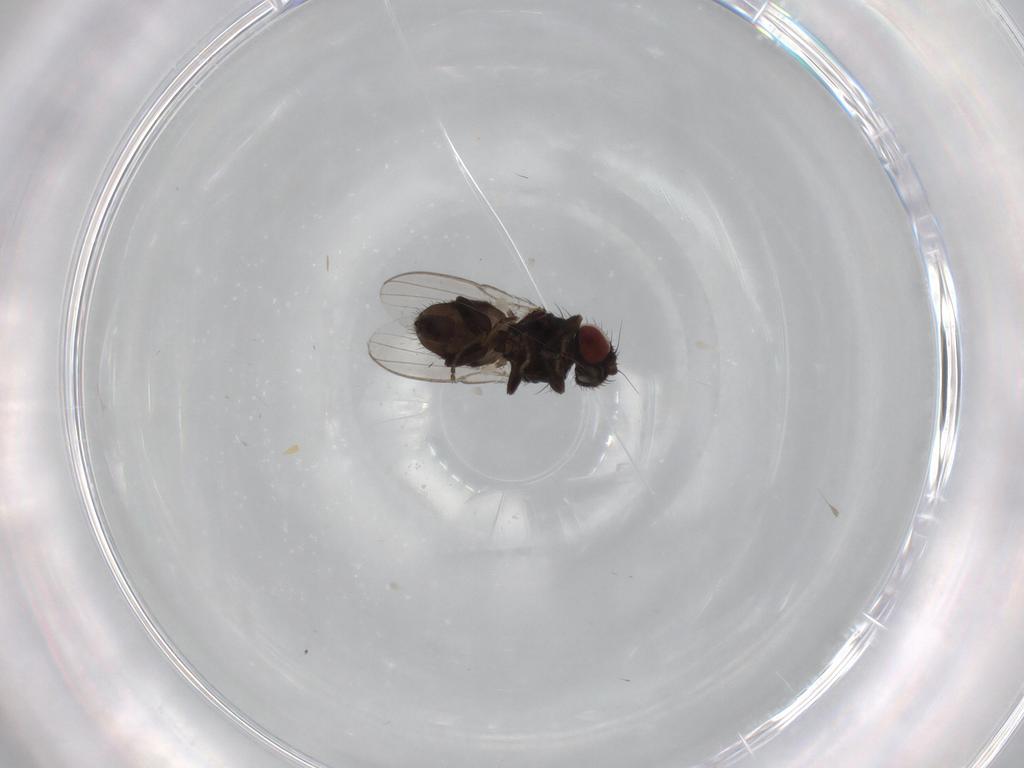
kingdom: Animalia
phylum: Arthropoda
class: Insecta
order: Diptera
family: Milichiidae
